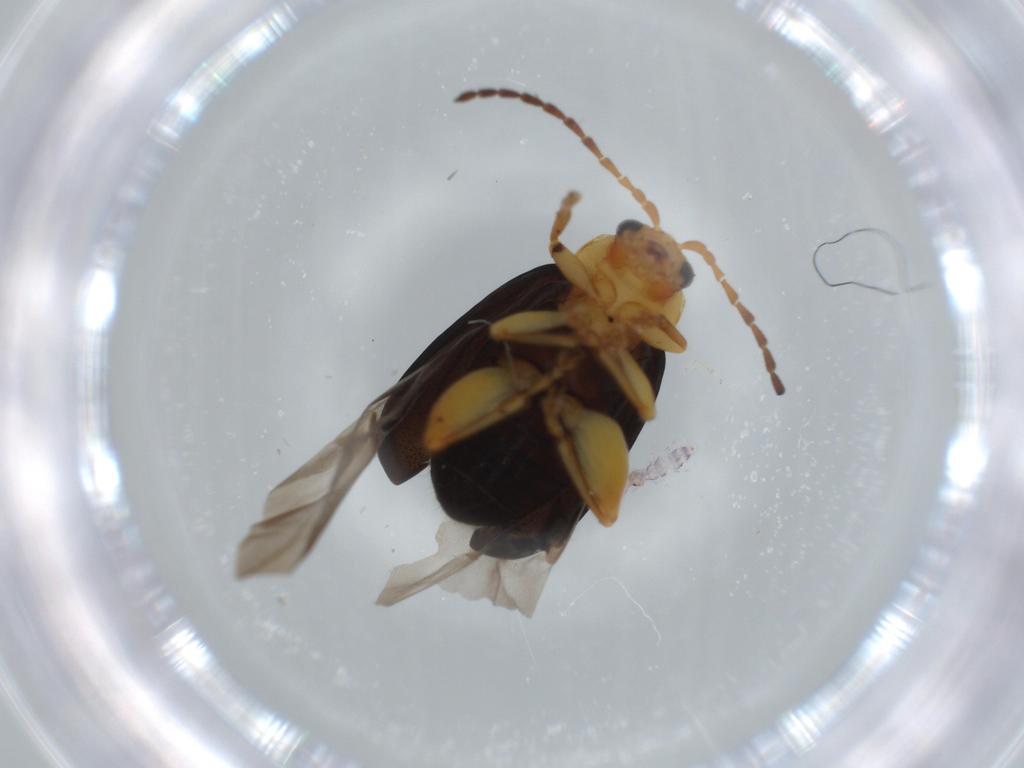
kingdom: Animalia
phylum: Arthropoda
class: Insecta
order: Coleoptera
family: Chrysomelidae
